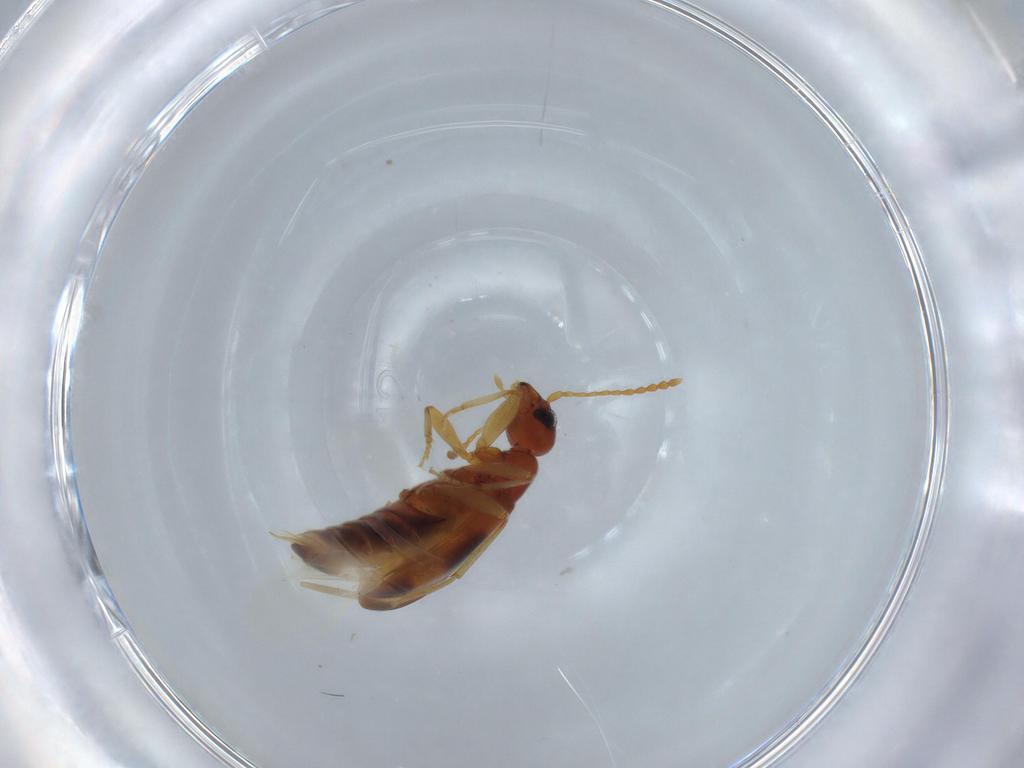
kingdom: Animalia
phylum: Arthropoda
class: Insecta
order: Coleoptera
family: Anthicidae
